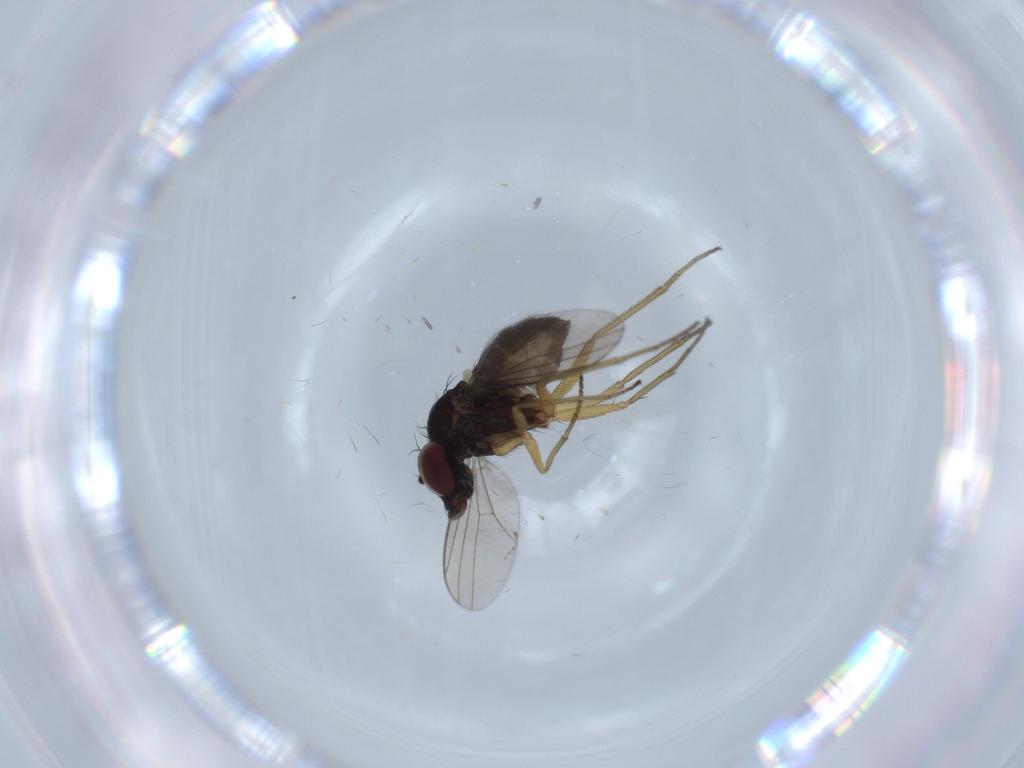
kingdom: Animalia
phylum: Arthropoda
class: Insecta
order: Diptera
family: Dolichopodidae
